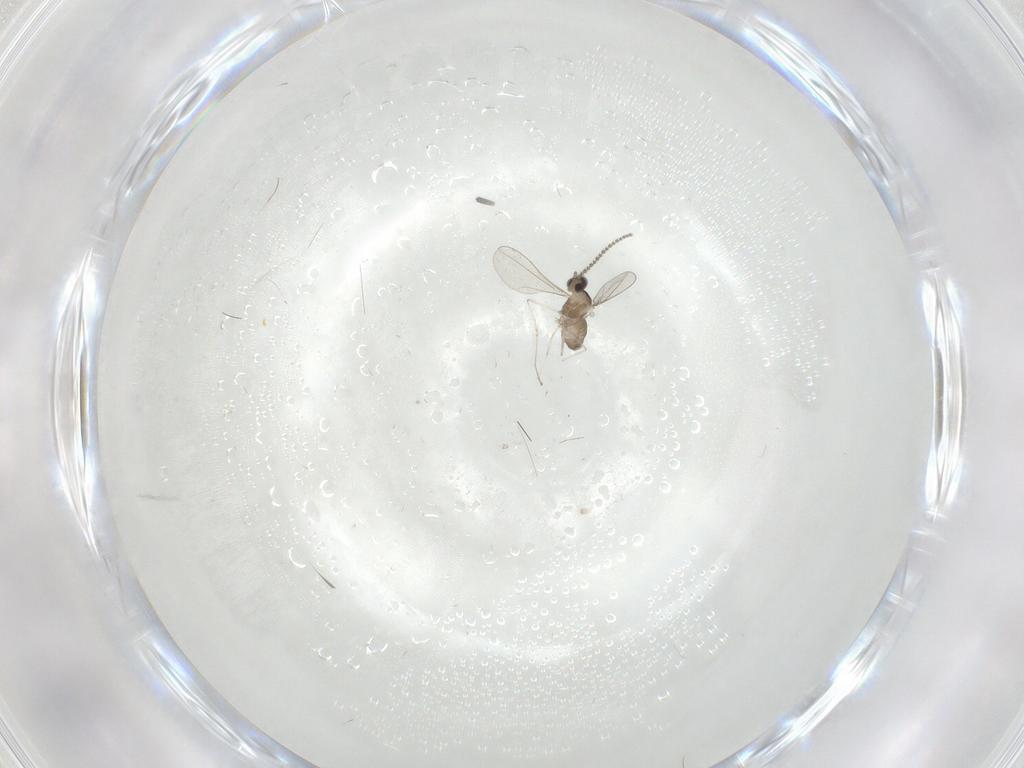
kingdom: Animalia
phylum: Arthropoda
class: Insecta
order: Diptera
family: Cecidomyiidae
